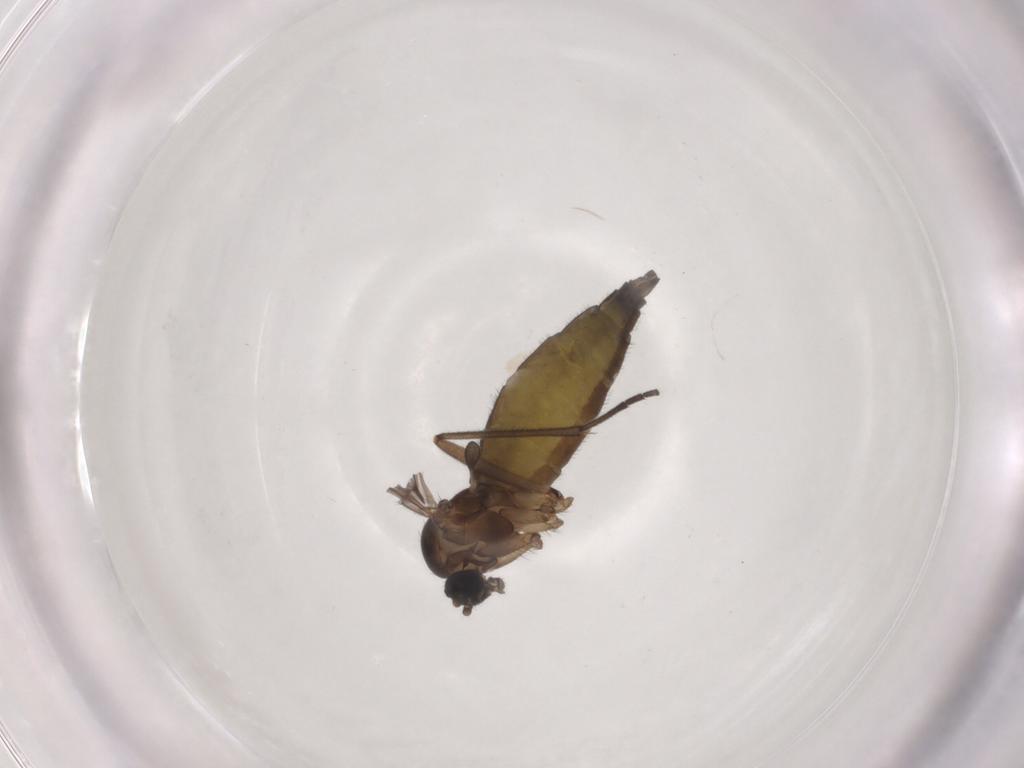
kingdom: Animalia
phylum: Arthropoda
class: Insecta
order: Diptera
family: Sciaridae
